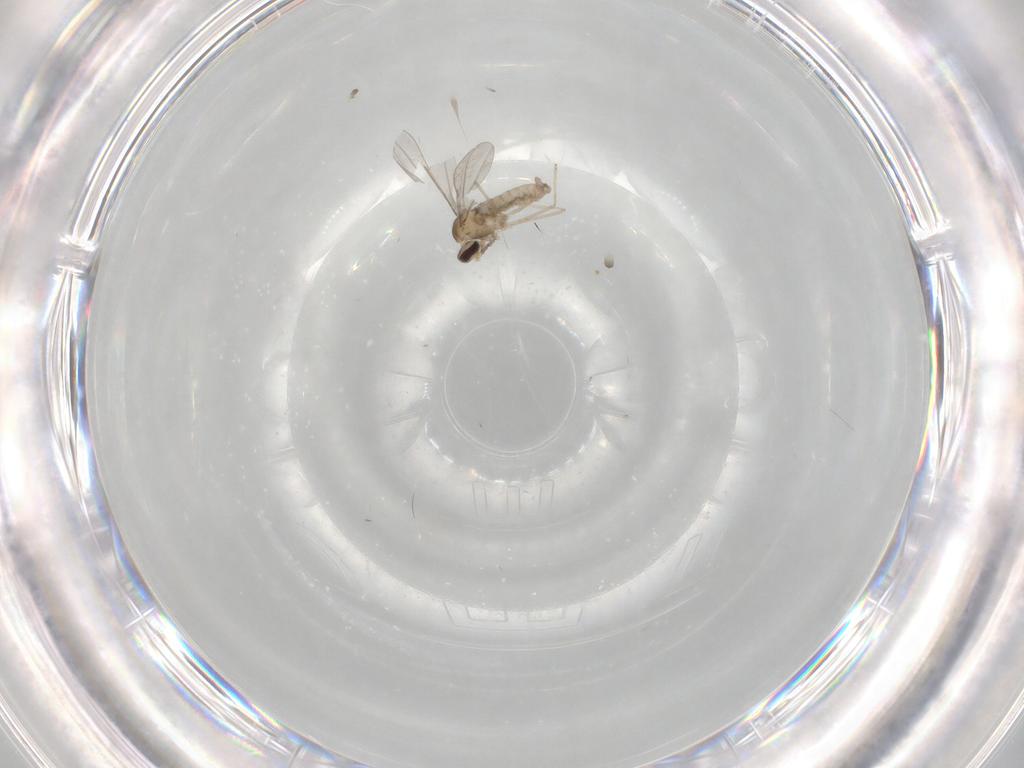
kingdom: Animalia
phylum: Arthropoda
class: Insecta
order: Diptera
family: Cecidomyiidae
